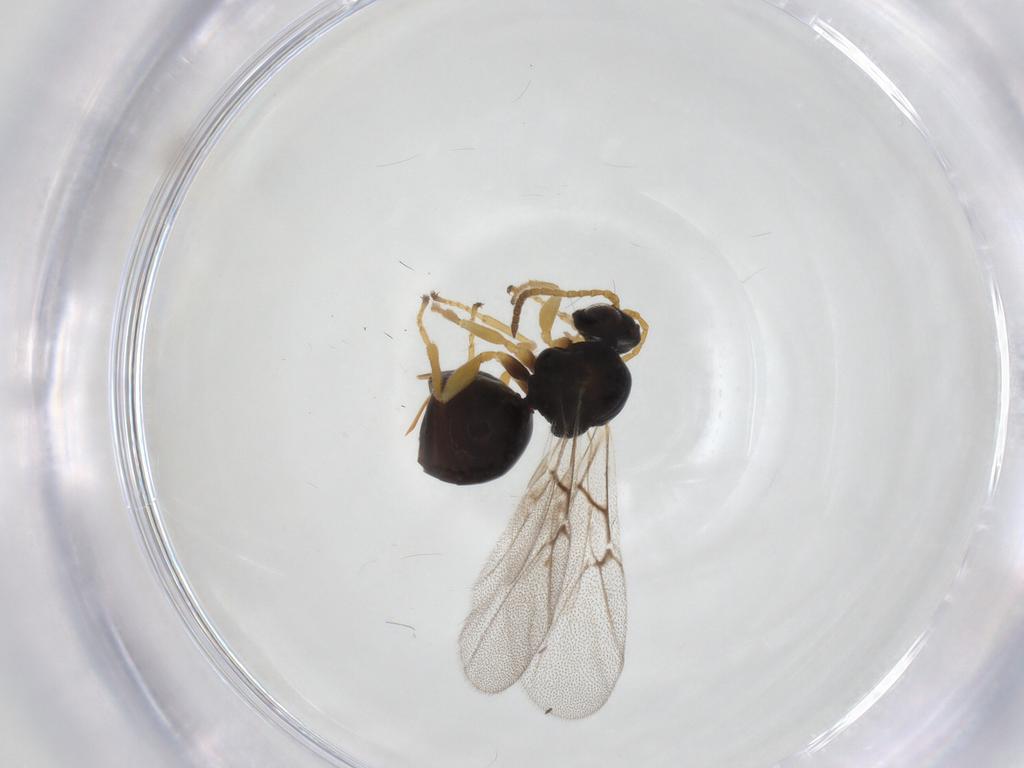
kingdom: Animalia
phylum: Arthropoda
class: Insecta
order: Hymenoptera
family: Cynipidae
